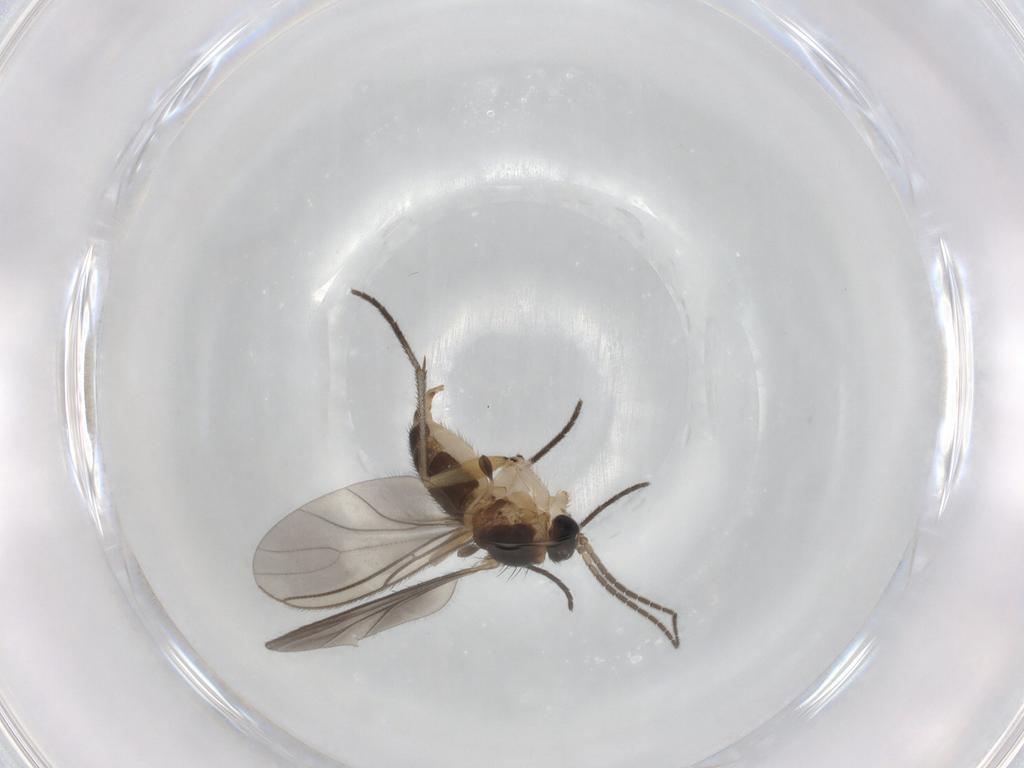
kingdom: Animalia
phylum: Arthropoda
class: Insecta
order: Diptera
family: Sciaridae
